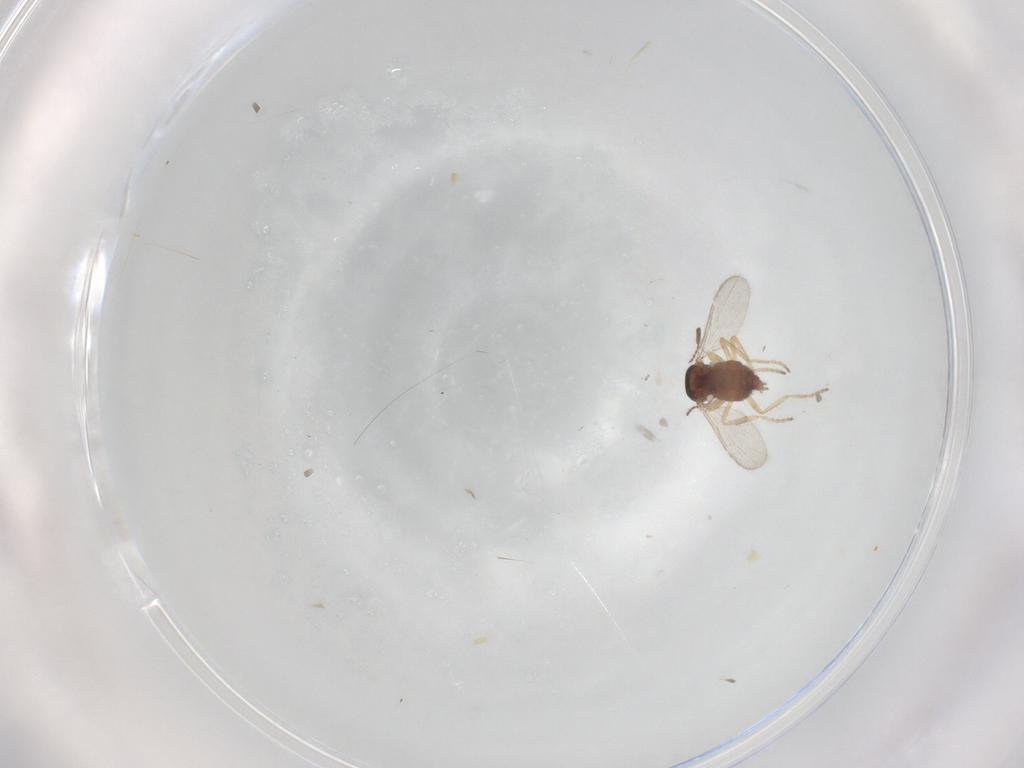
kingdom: Animalia
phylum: Arthropoda
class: Insecta
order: Diptera
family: Ceratopogonidae
